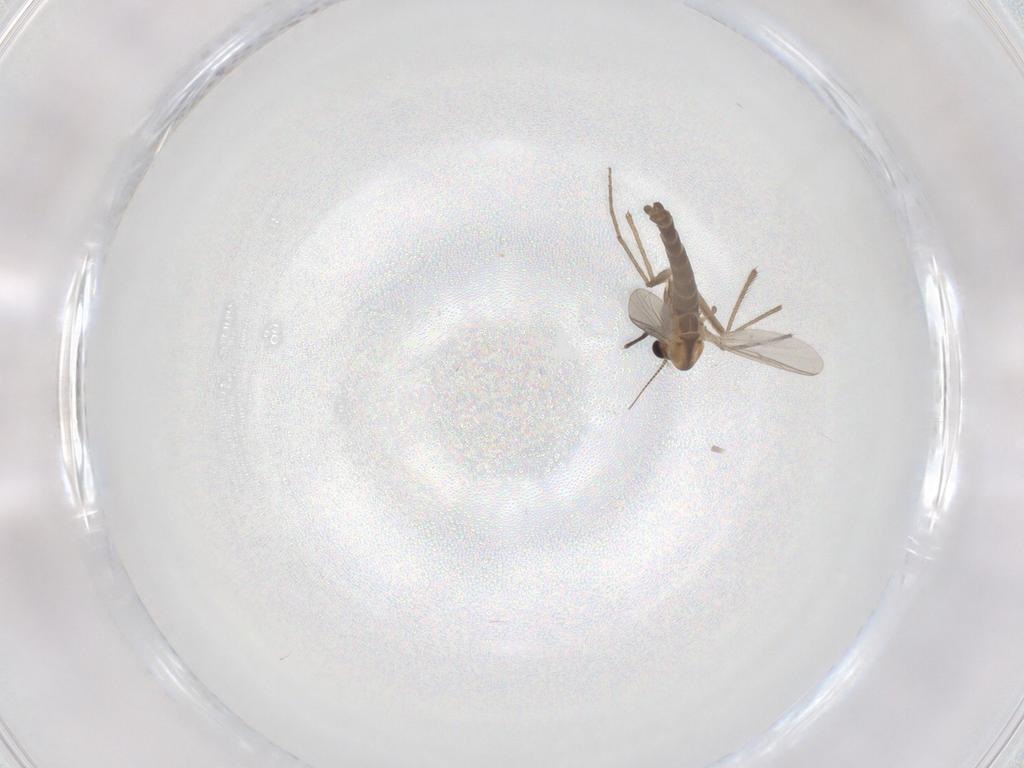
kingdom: Animalia
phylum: Arthropoda
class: Insecta
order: Diptera
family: Chironomidae
